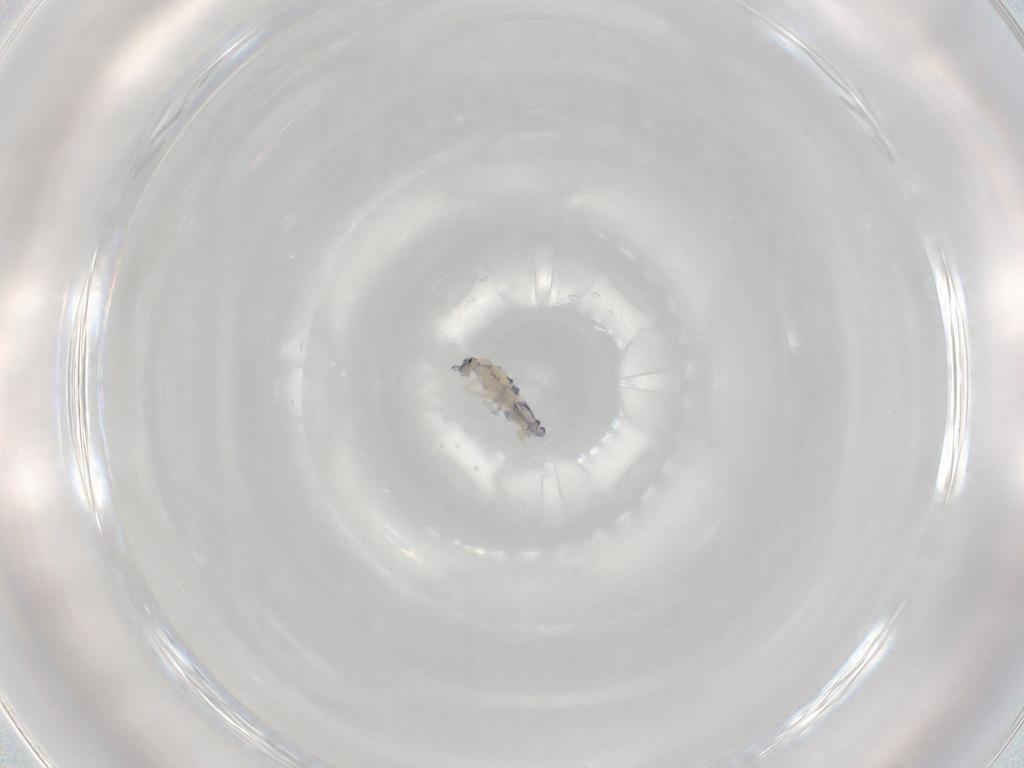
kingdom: Animalia
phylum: Arthropoda
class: Collembola
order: Entomobryomorpha
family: Entomobryidae
